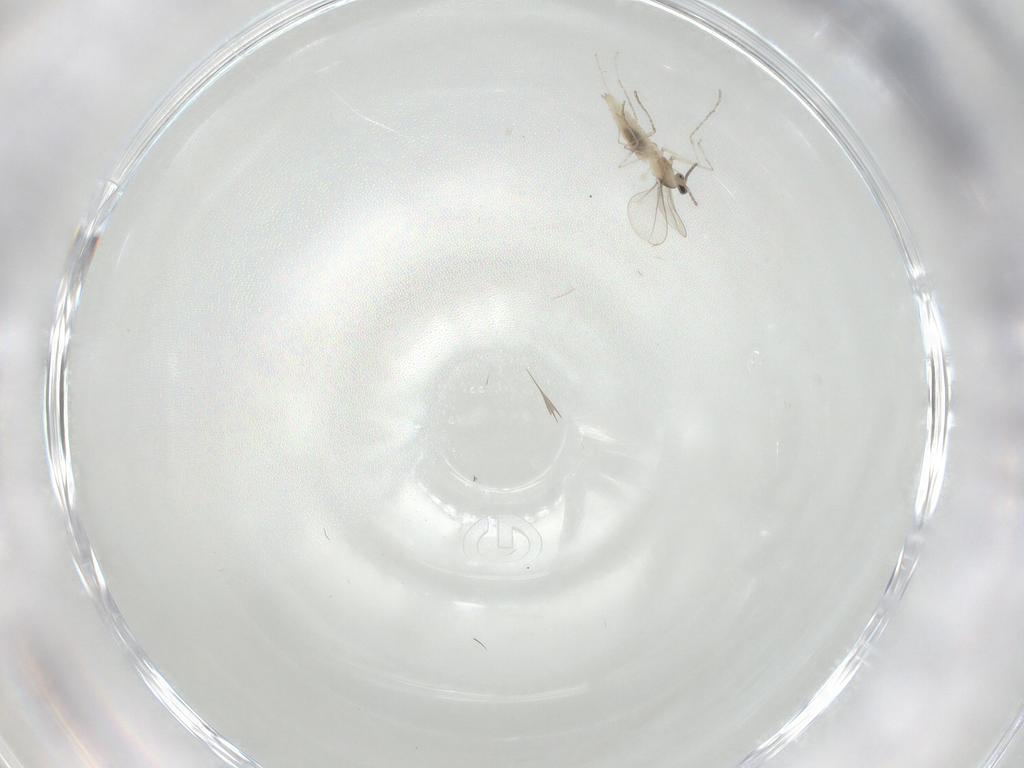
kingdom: Animalia
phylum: Arthropoda
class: Insecta
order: Diptera
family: Cecidomyiidae
